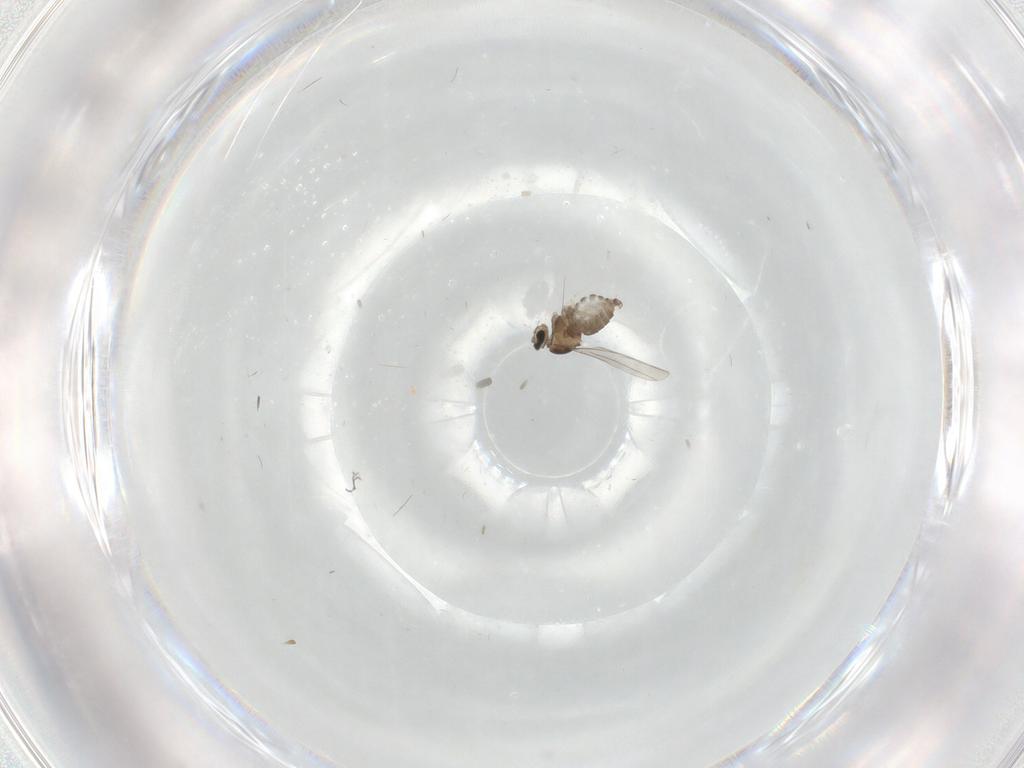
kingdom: Animalia
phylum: Arthropoda
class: Insecta
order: Diptera
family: Cecidomyiidae
